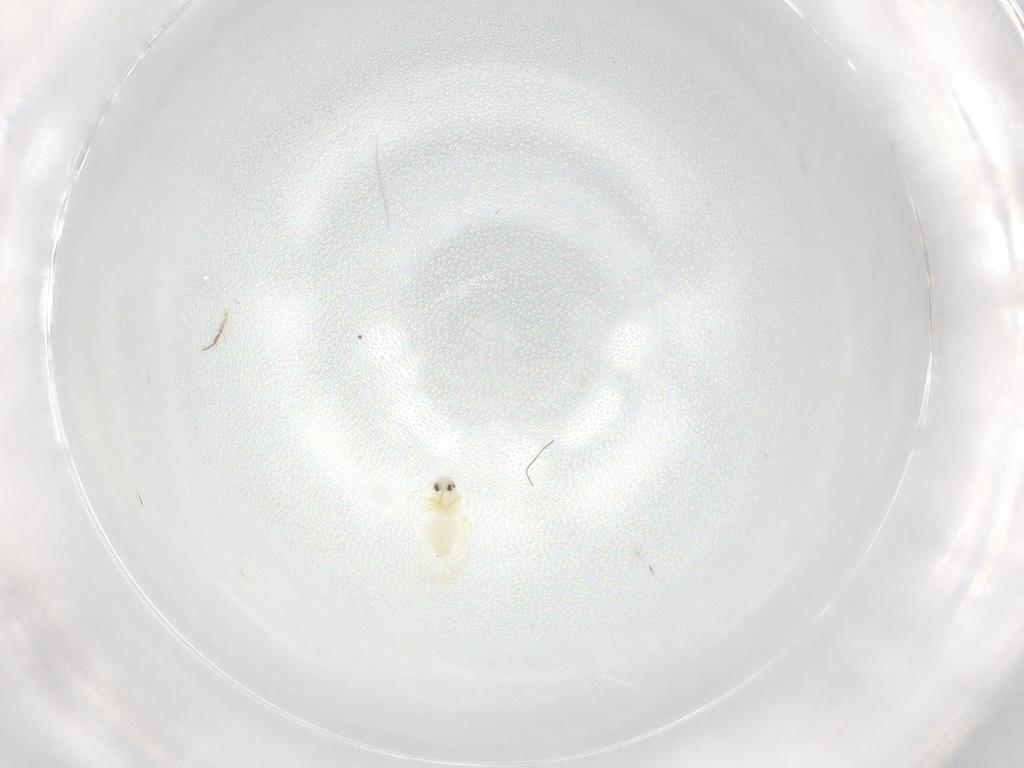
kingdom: Animalia
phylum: Arthropoda
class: Insecta
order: Hemiptera
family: Aleyrodidae
